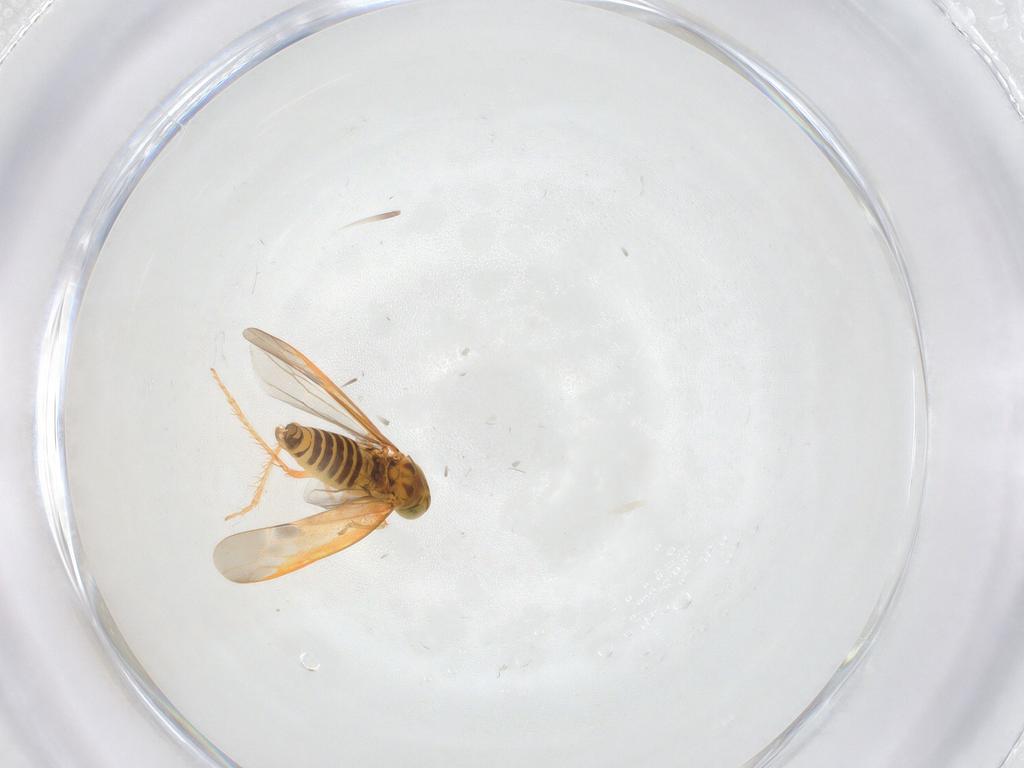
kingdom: Animalia
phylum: Arthropoda
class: Insecta
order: Hemiptera
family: Cicadellidae
